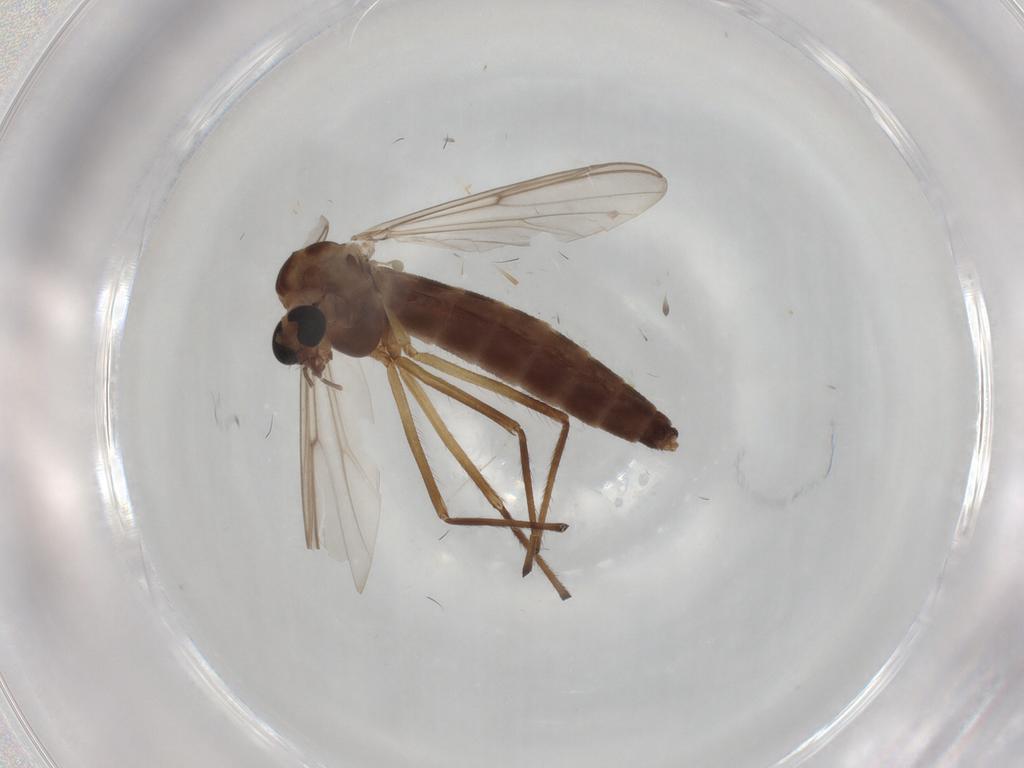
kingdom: Animalia
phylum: Arthropoda
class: Insecta
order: Diptera
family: Chironomidae
